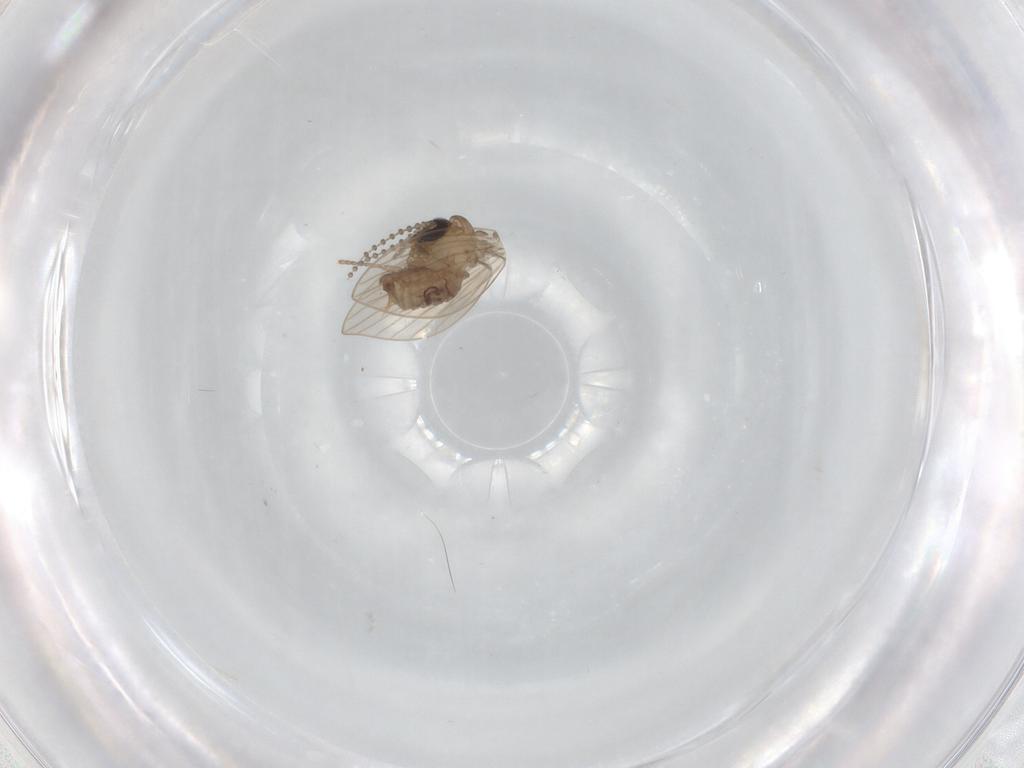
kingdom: Animalia
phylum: Arthropoda
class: Insecta
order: Diptera
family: Psychodidae
